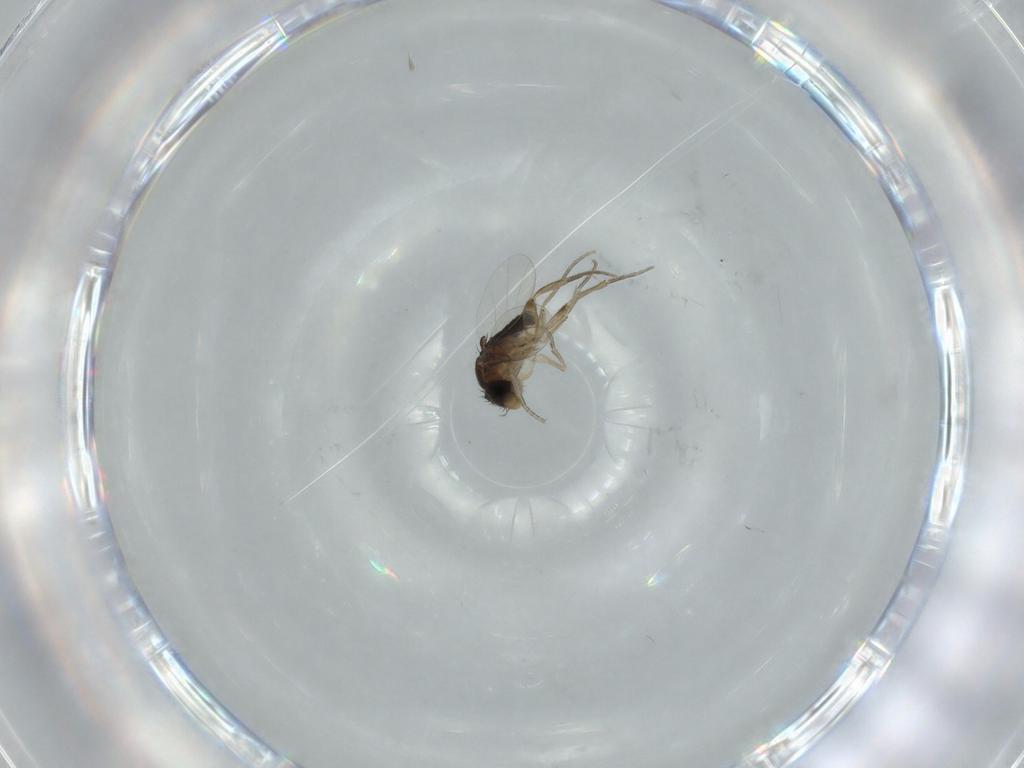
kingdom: Animalia
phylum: Arthropoda
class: Insecta
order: Diptera
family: Phoridae
